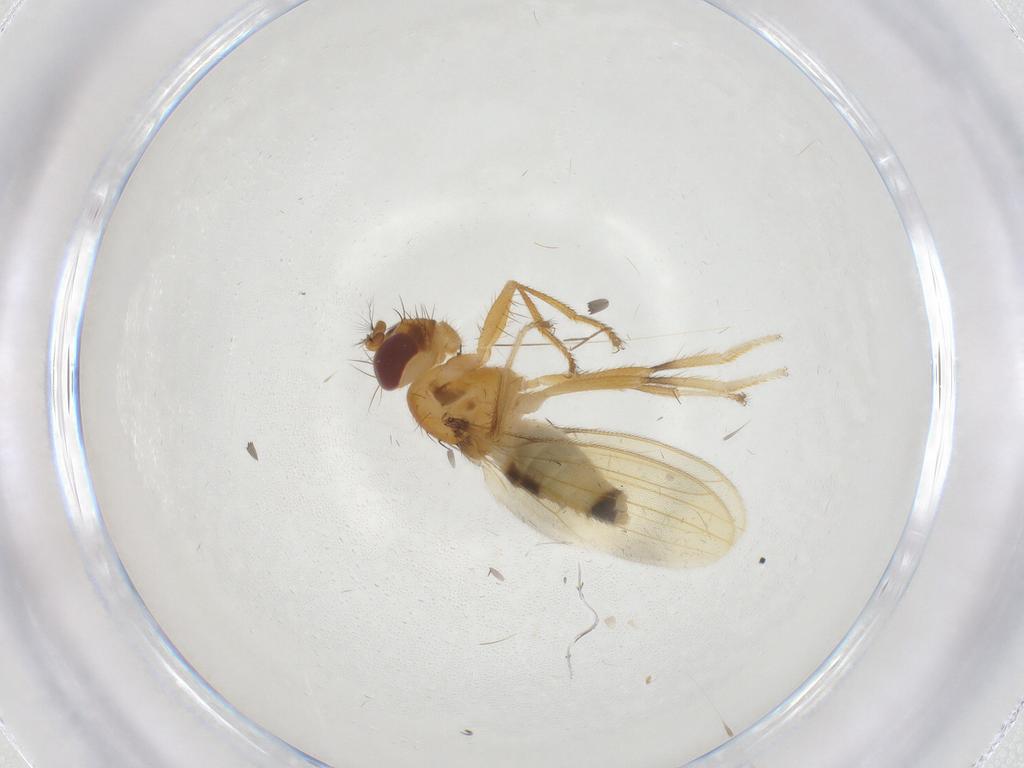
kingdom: Animalia
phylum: Arthropoda
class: Insecta
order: Diptera
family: Periscelididae
